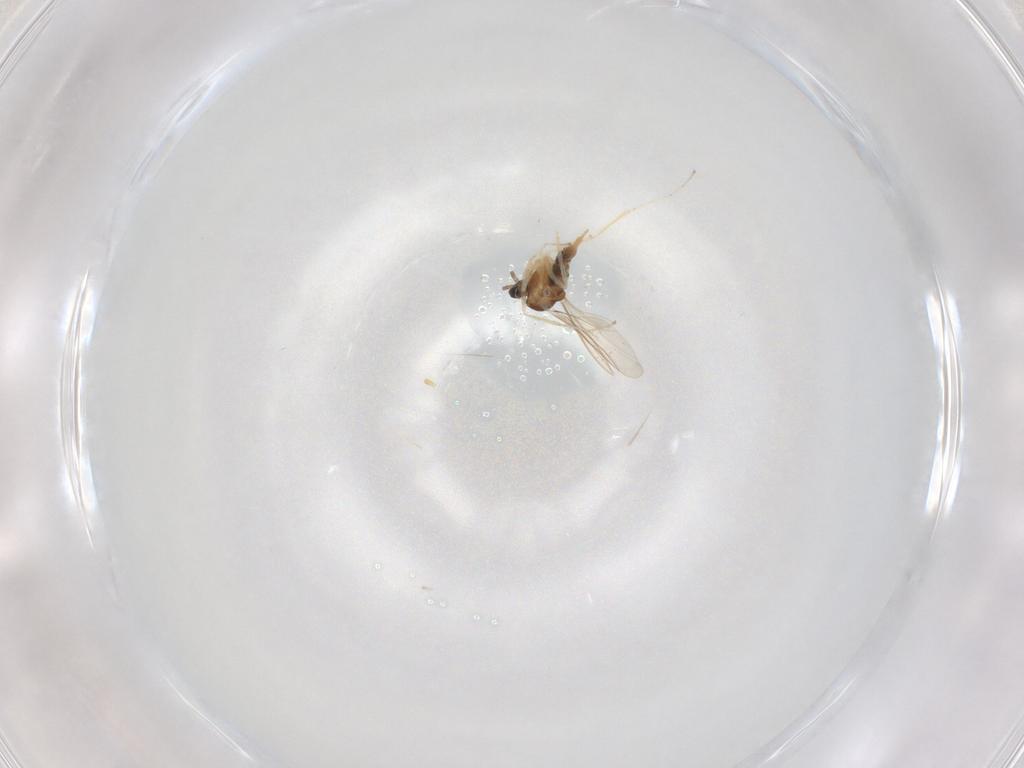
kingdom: Animalia
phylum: Arthropoda
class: Insecta
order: Diptera
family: Cecidomyiidae
